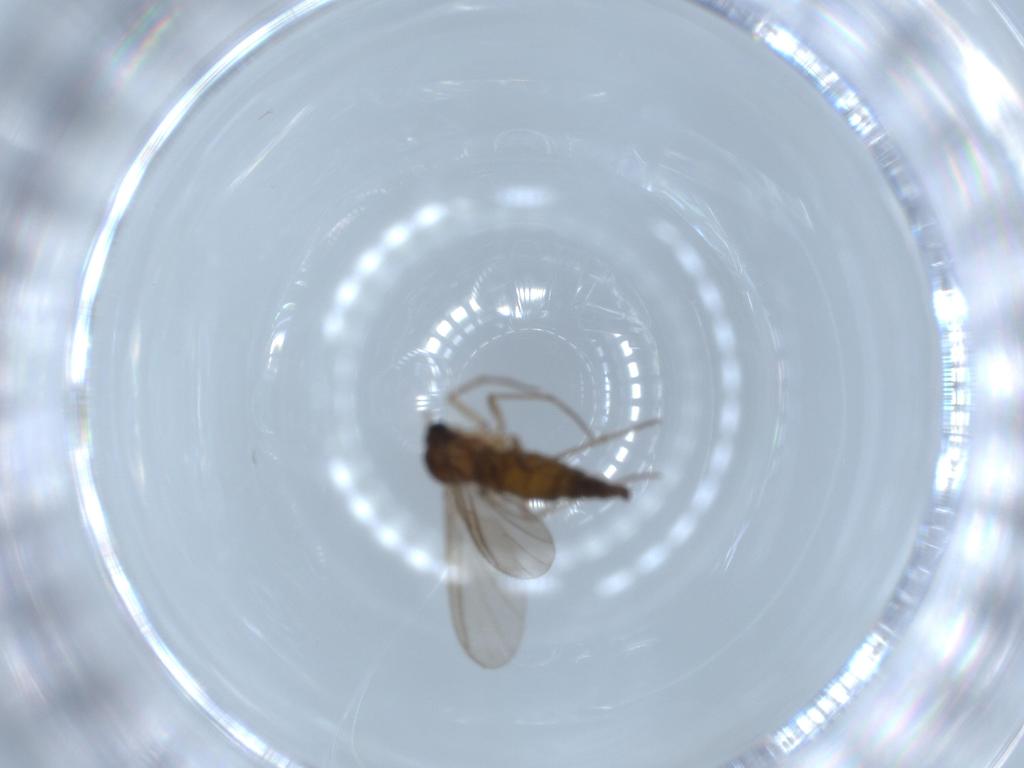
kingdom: Animalia
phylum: Arthropoda
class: Insecta
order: Diptera
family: Sciaridae
